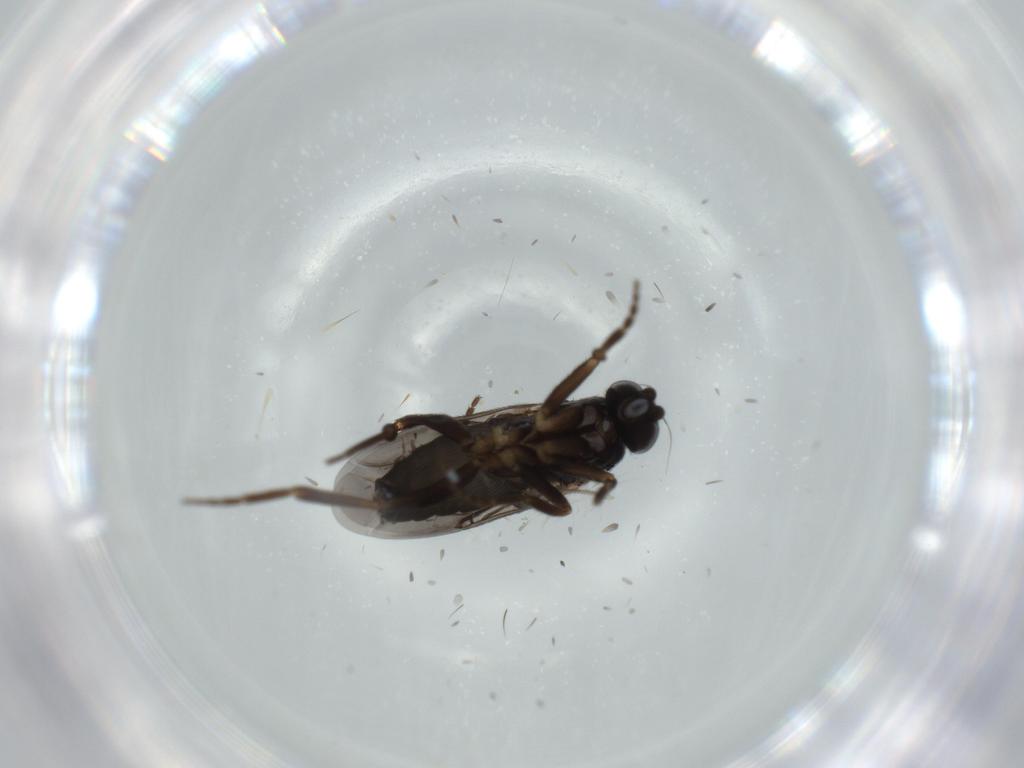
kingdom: Animalia
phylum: Arthropoda
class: Insecta
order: Diptera
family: Phoridae
